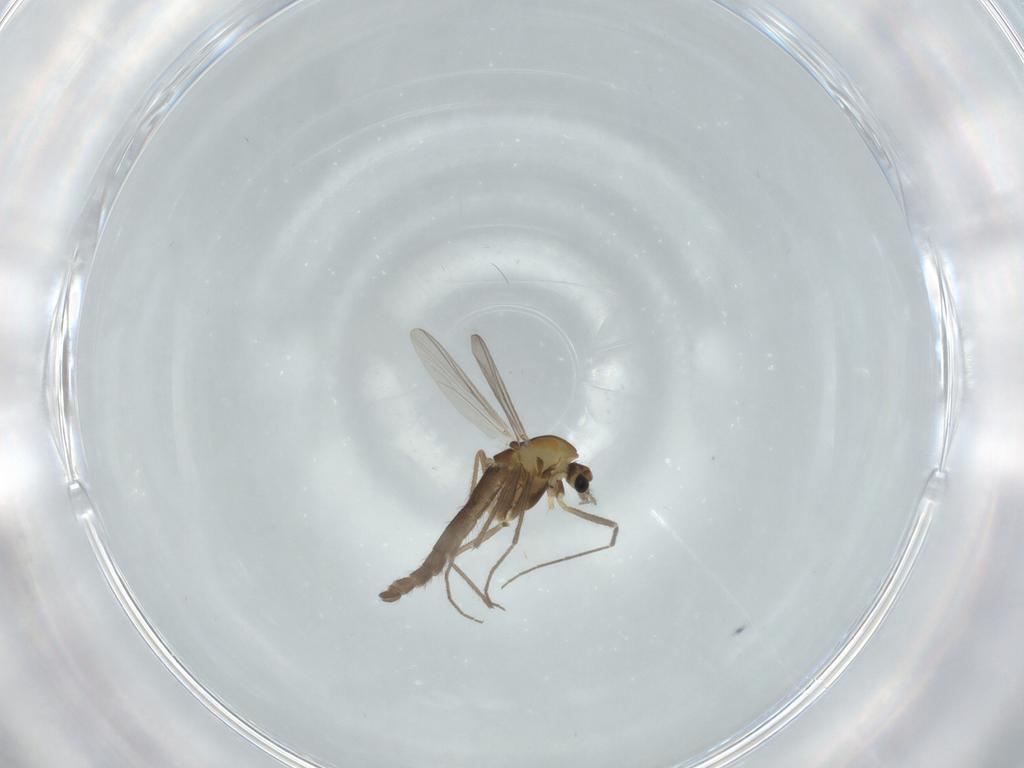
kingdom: Animalia
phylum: Arthropoda
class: Insecta
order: Diptera
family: Chironomidae
